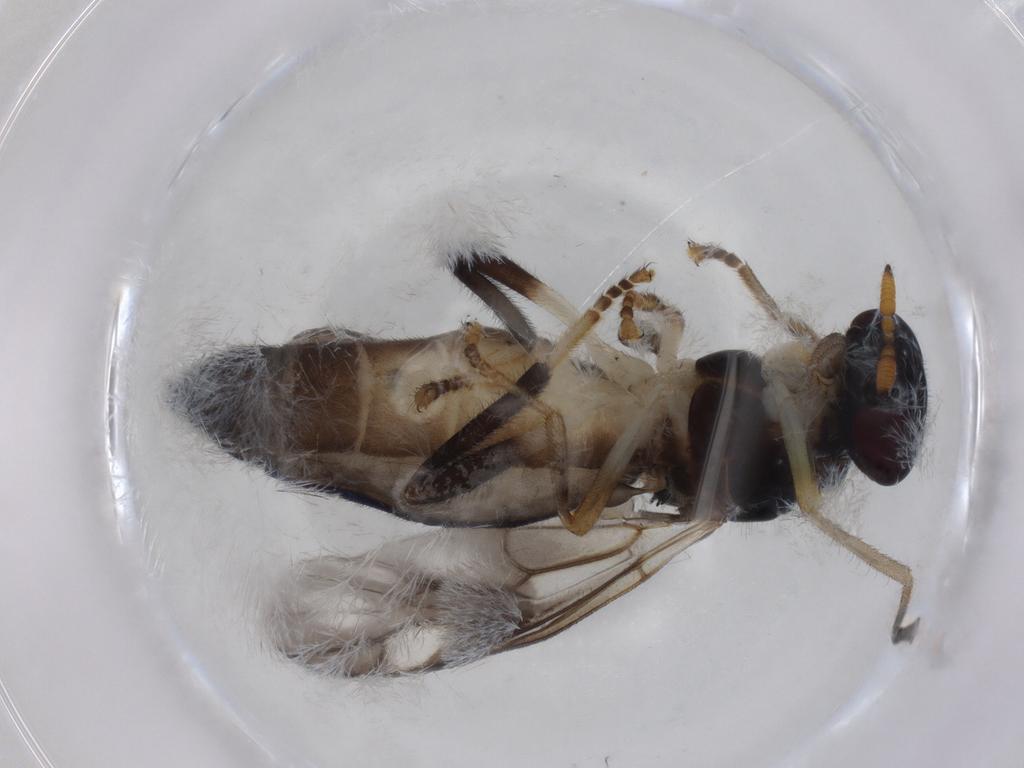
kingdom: Animalia
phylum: Arthropoda
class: Insecta
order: Diptera
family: Stratiomyidae
